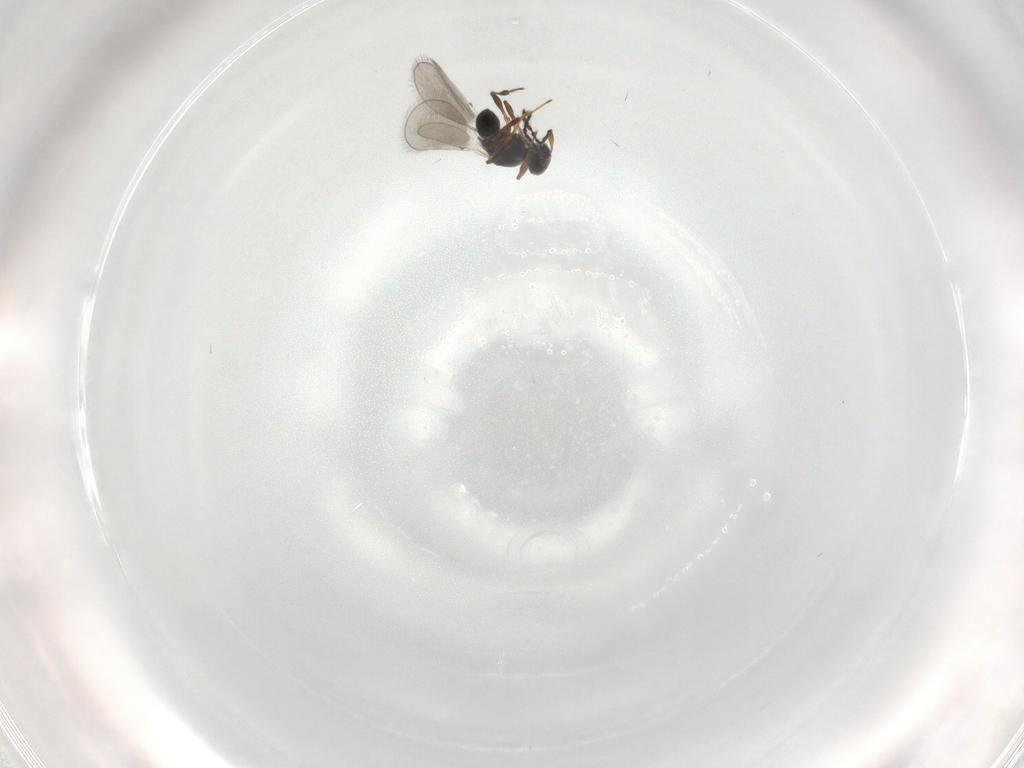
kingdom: Animalia
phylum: Arthropoda
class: Insecta
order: Hymenoptera
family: Platygastridae
